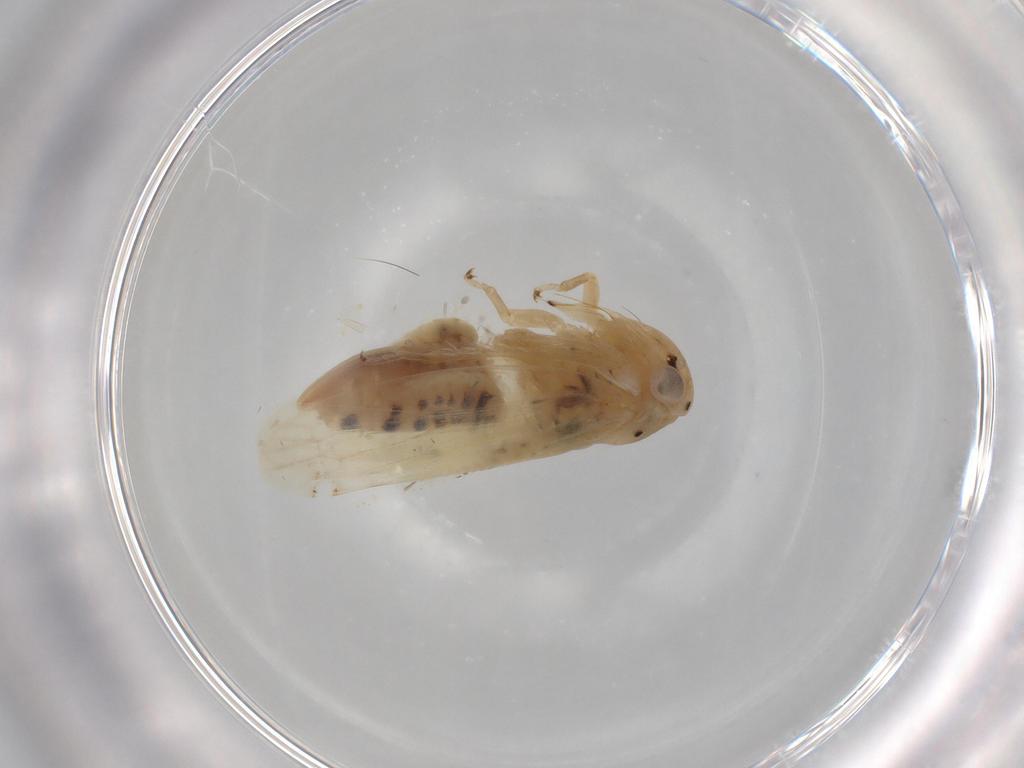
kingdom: Animalia
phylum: Arthropoda
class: Insecta
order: Hemiptera
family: Cicadellidae
